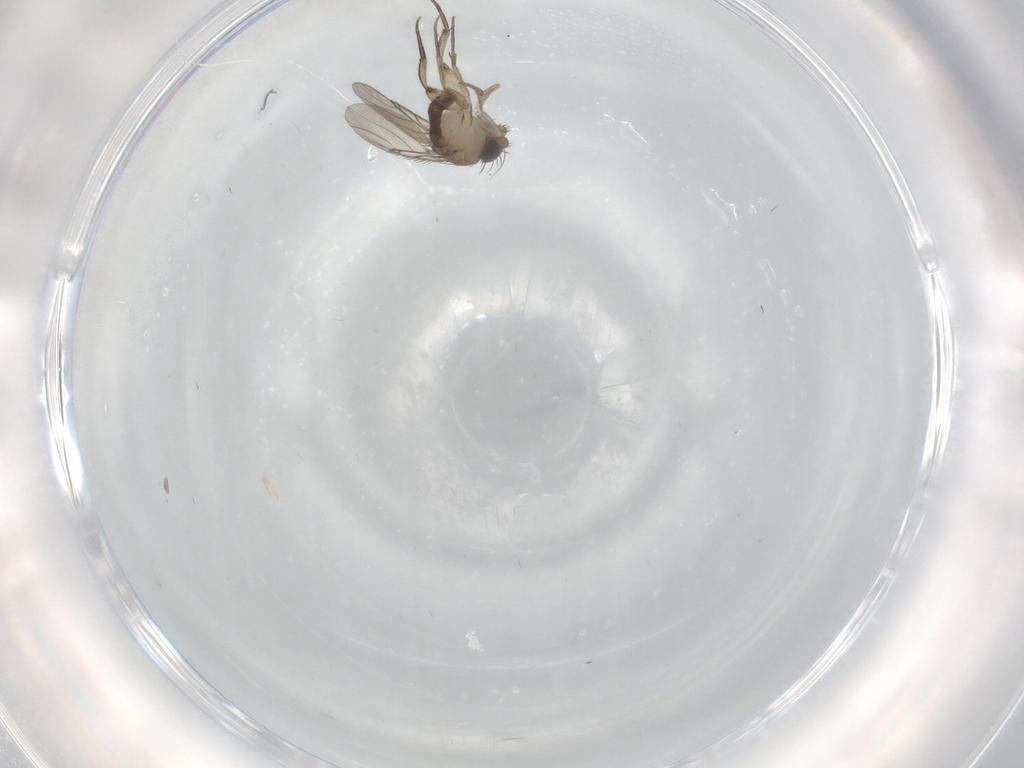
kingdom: Animalia
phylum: Arthropoda
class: Insecta
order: Diptera
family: Phoridae
